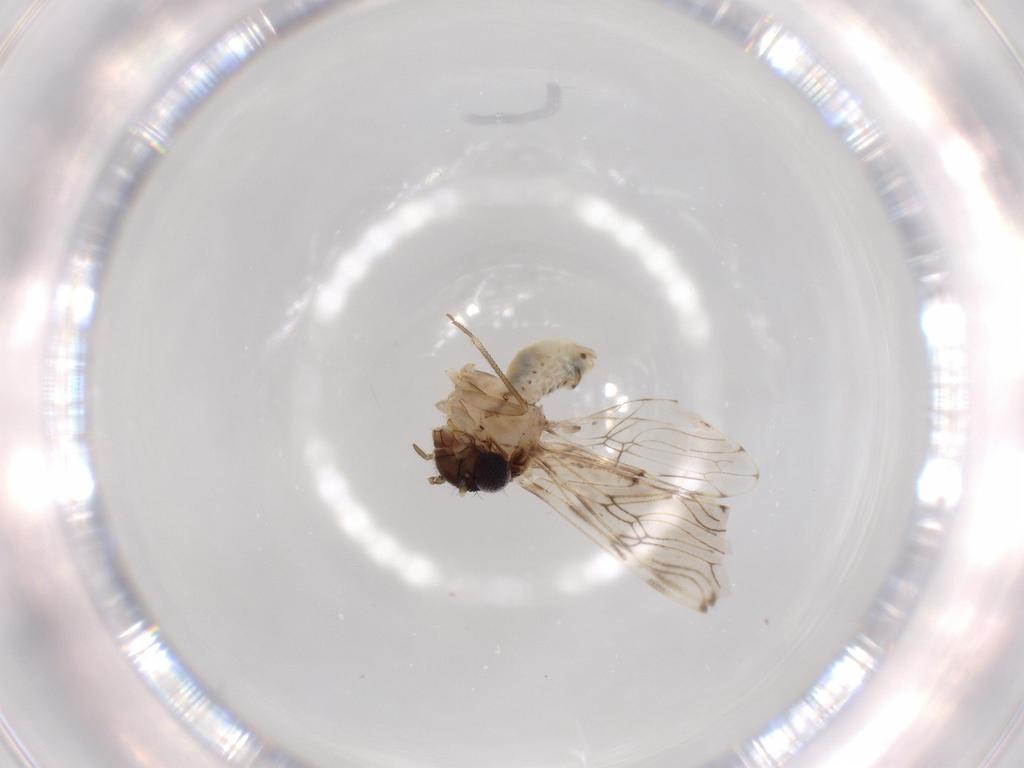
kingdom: Animalia
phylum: Arthropoda
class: Insecta
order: Psocodea
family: Epipsocidae
